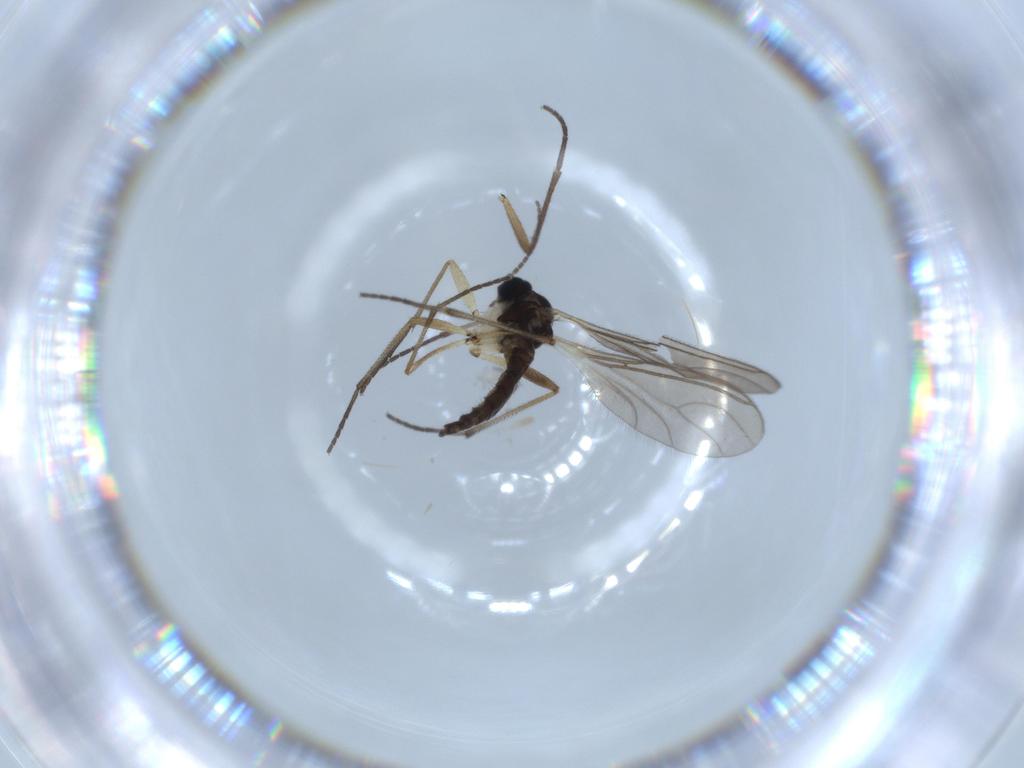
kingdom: Animalia
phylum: Arthropoda
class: Insecta
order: Diptera
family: Sciaridae
